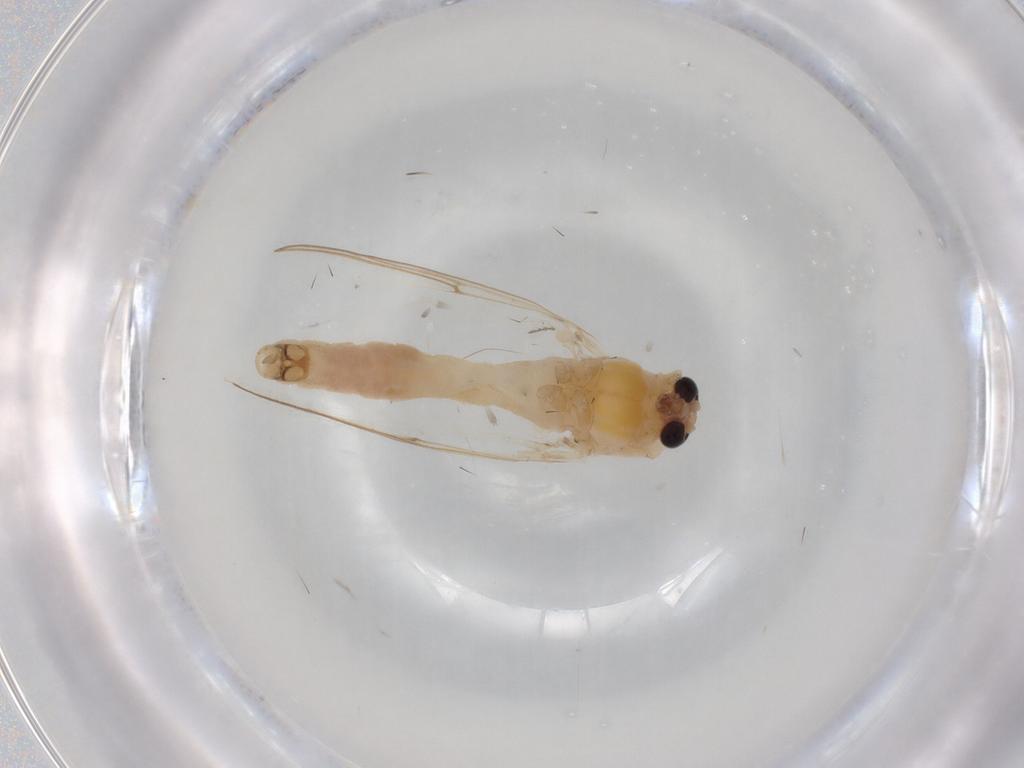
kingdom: Animalia
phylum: Arthropoda
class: Insecta
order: Diptera
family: Chironomidae
